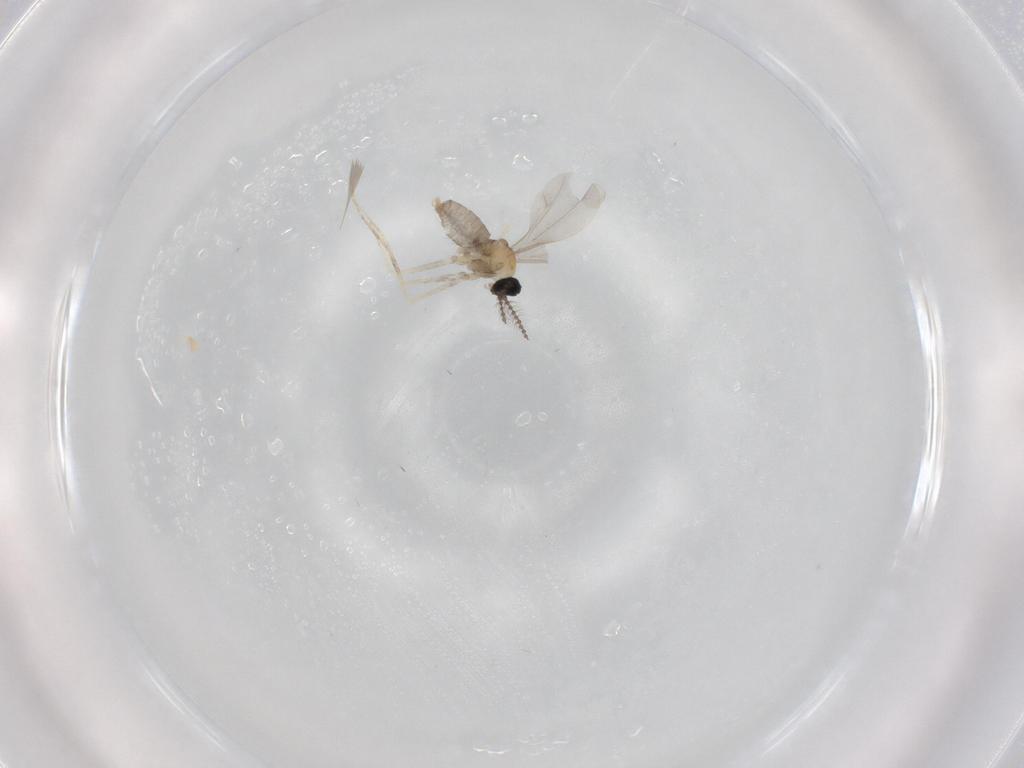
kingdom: Animalia
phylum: Arthropoda
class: Insecta
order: Diptera
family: Cecidomyiidae
